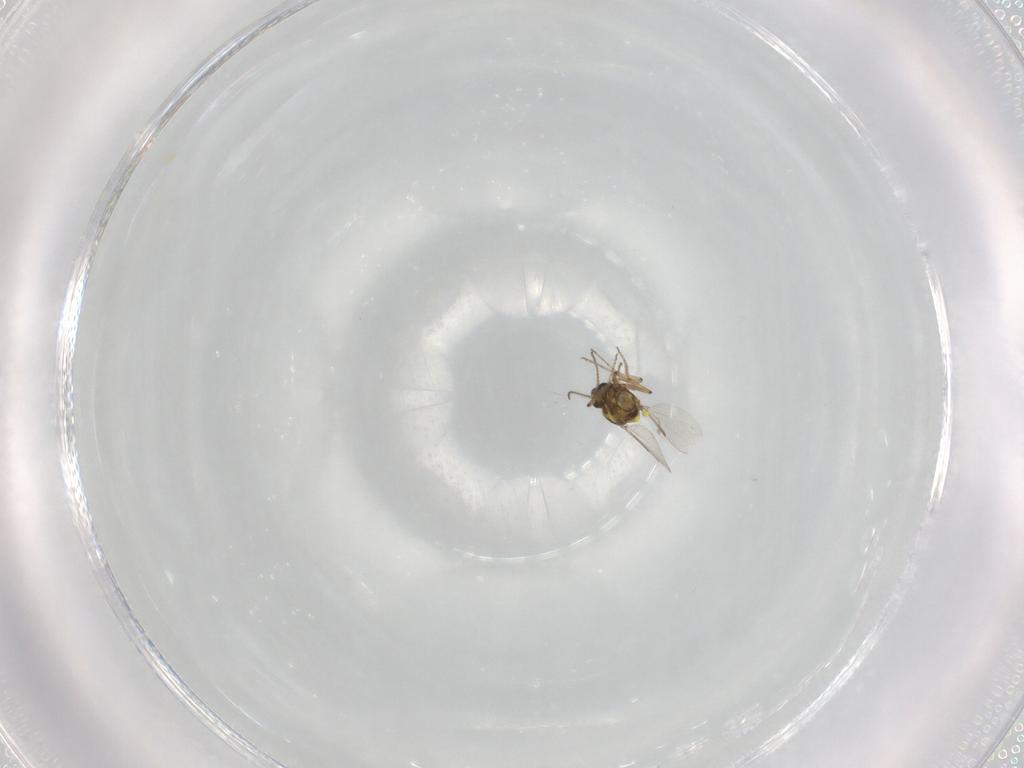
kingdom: Animalia
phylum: Arthropoda
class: Insecta
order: Diptera
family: Ceratopogonidae
